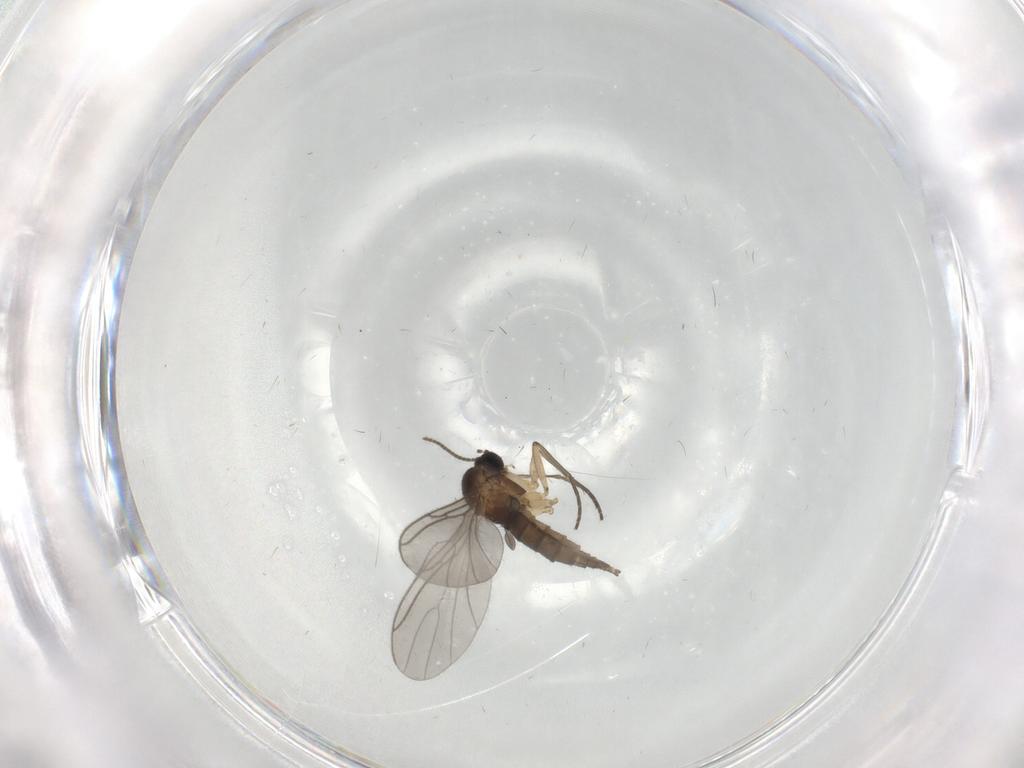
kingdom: Animalia
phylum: Arthropoda
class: Insecta
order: Diptera
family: Sciaridae
